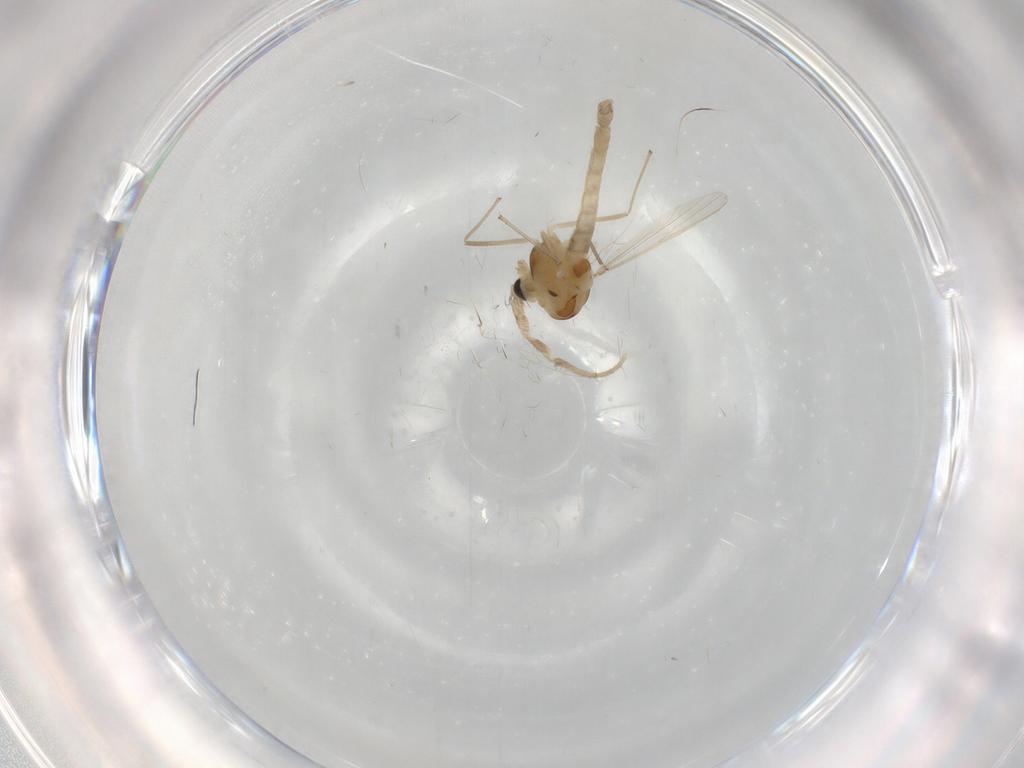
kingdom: Animalia
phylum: Arthropoda
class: Insecta
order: Diptera
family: Chironomidae
